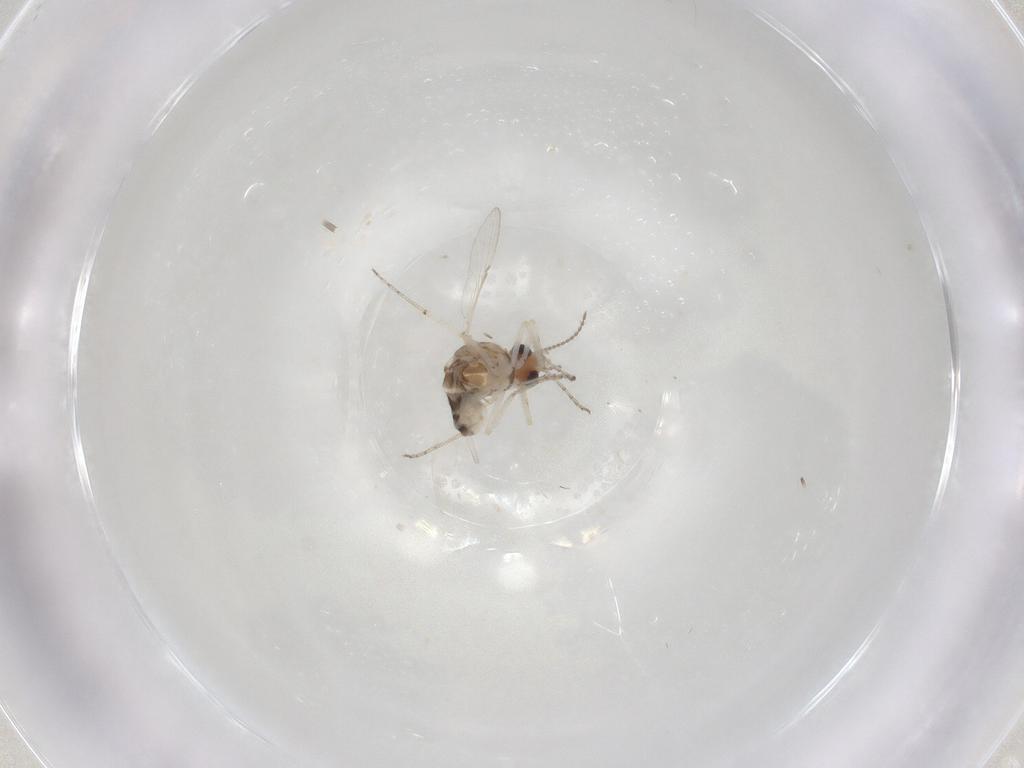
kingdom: Animalia
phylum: Arthropoda
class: Insecta
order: Diptera
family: Ceratopogonidae
